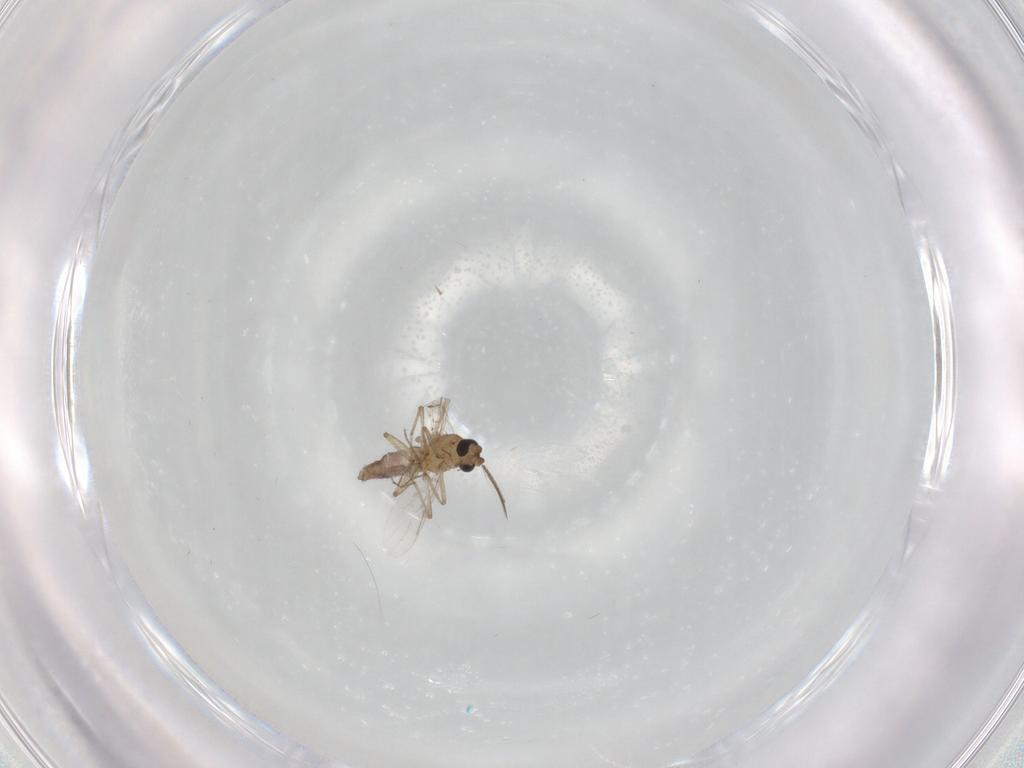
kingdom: Animalia
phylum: Arthropoda
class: Insecta
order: Diptera
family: Ceratopogonidae
